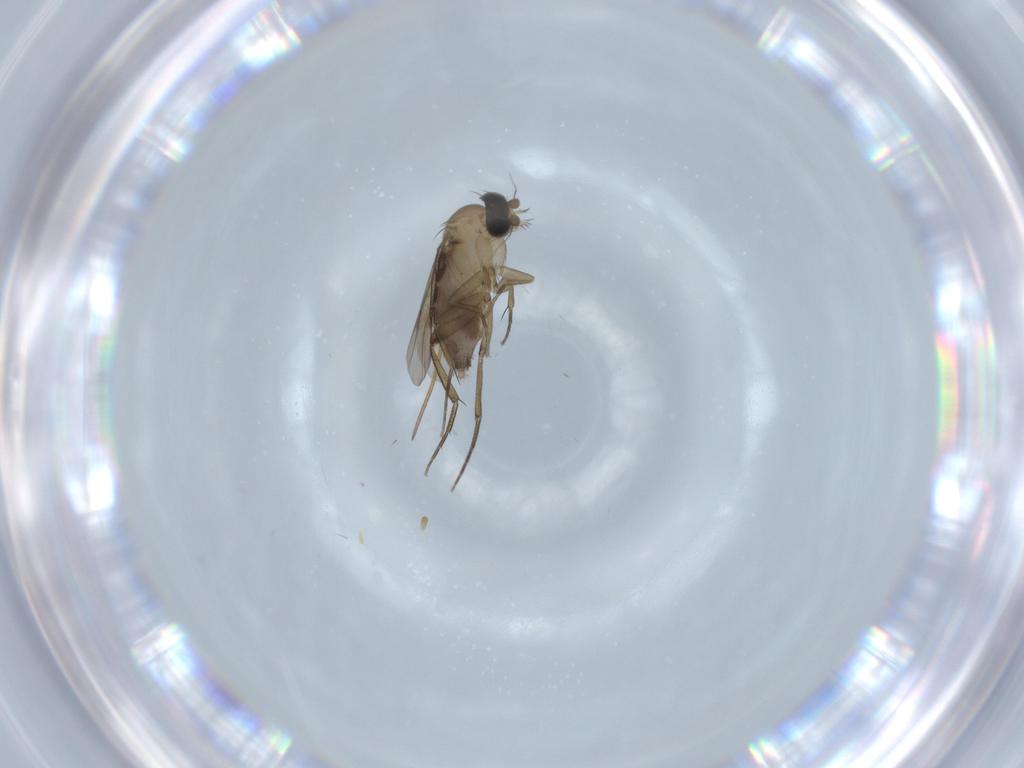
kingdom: Animalia
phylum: Arthropoda
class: Insecta
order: Diptera
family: Phoridae
